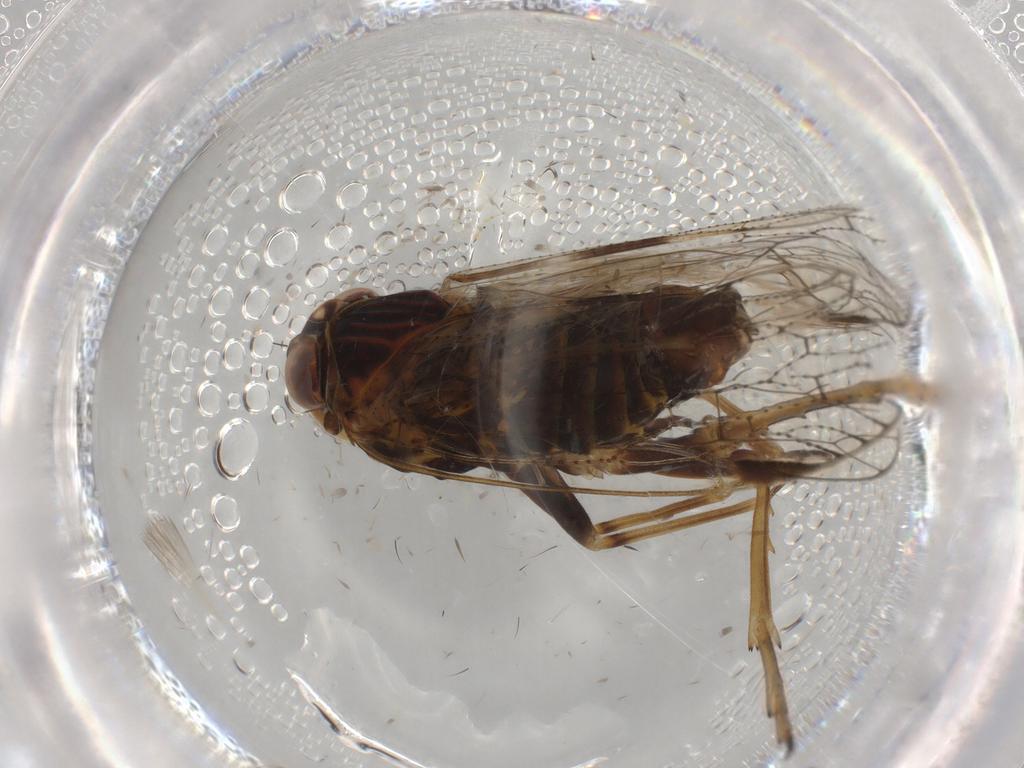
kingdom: Animalia
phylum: Arthropoda
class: Insecta
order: Hemiptera
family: Cixiidae
